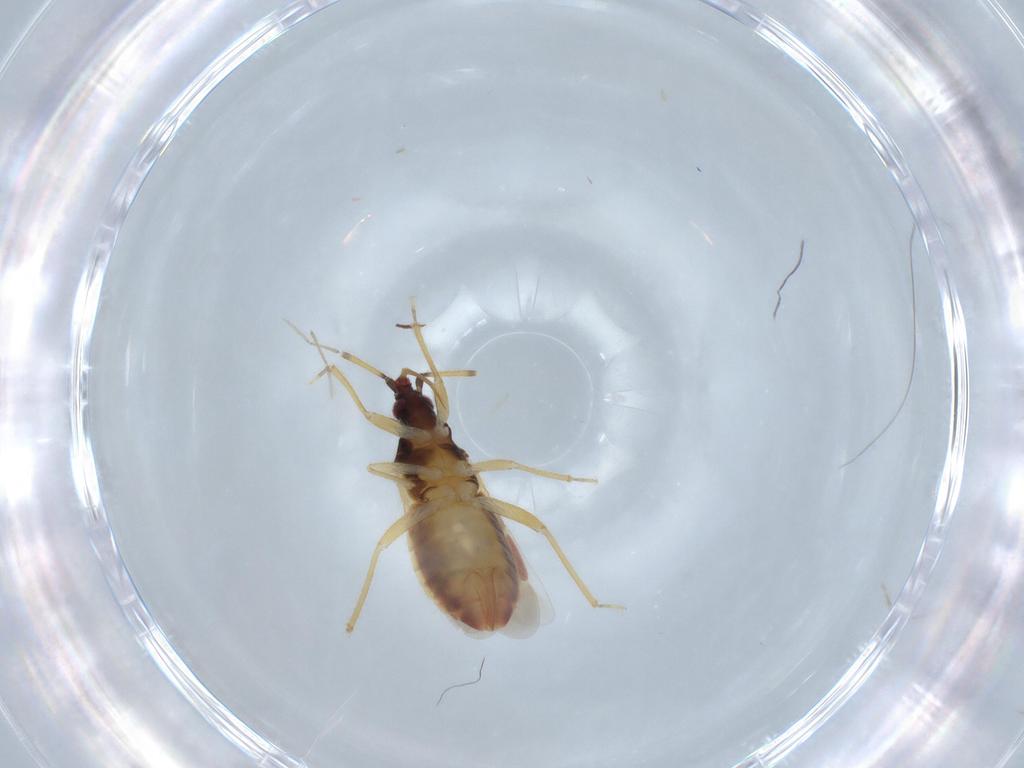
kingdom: Animalia
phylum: Arthropoda
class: Insecta
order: Hemiptera
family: Lasiochilidae
